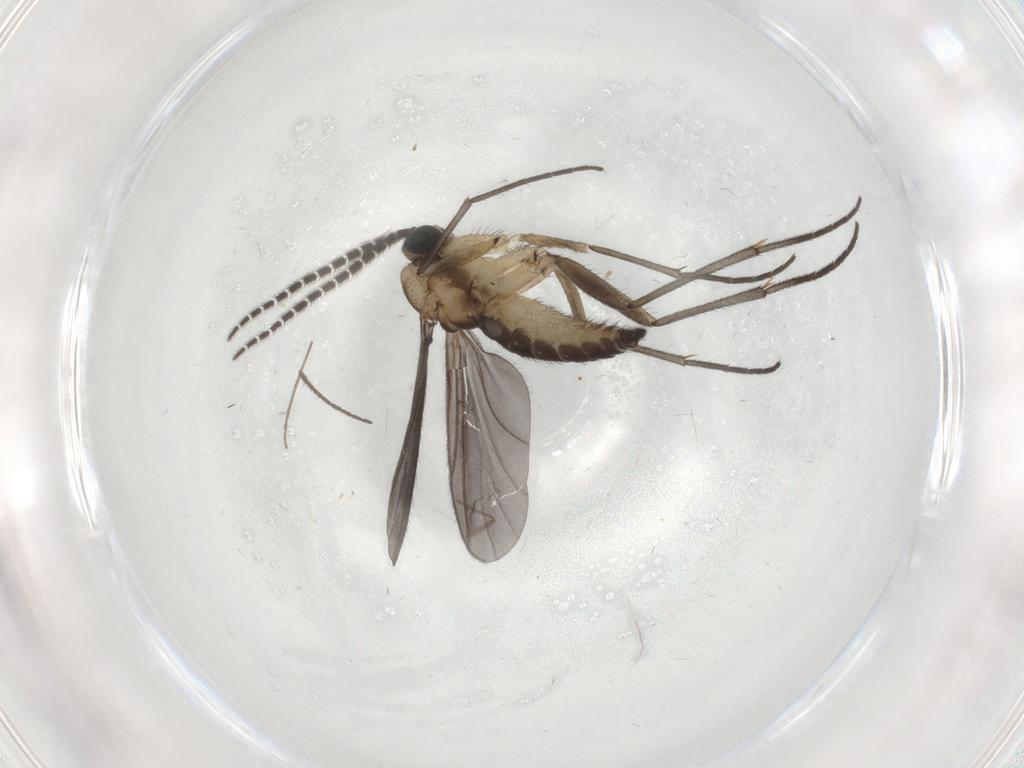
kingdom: Animalia
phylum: Arthropoda
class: Insecta
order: Diptera
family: Sciaridae
